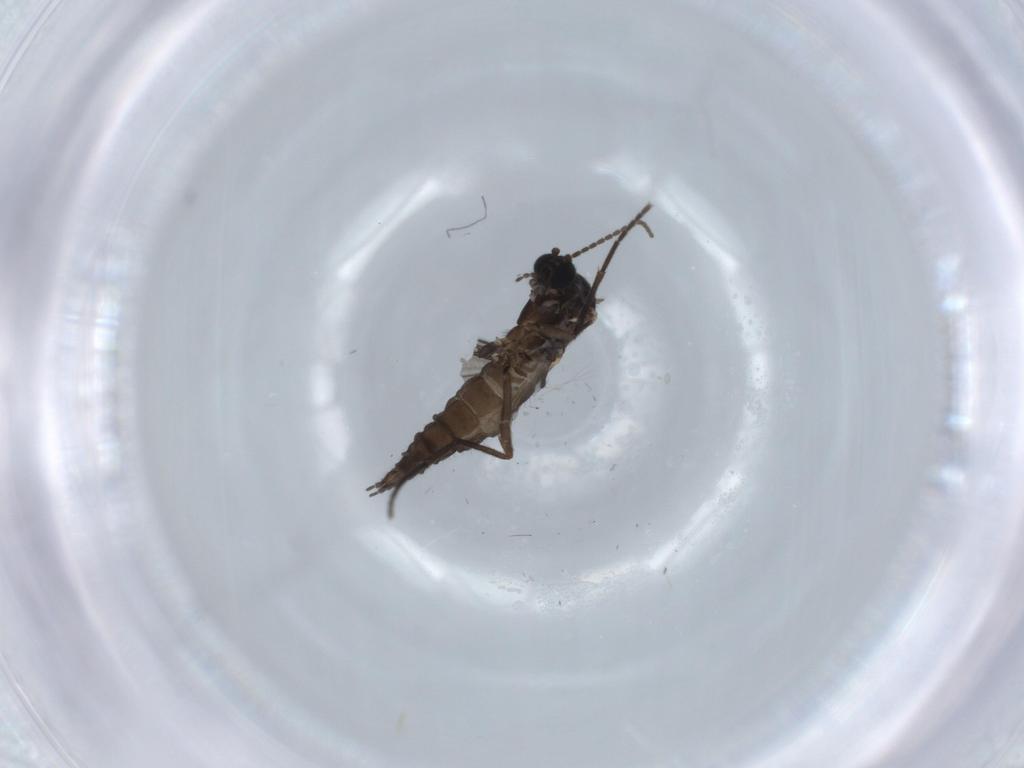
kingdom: Animalia
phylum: Arthropoda
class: Insecta
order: Diptera
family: Sciaridae
